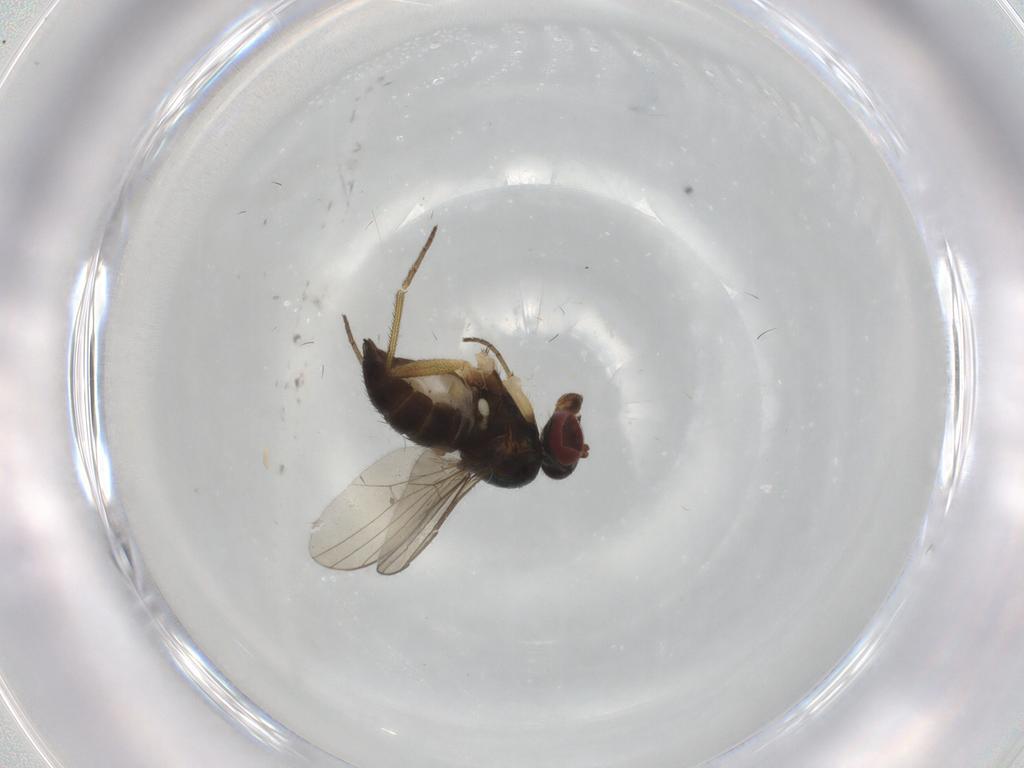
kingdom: Animalia
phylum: Arthropoda
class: Insecta
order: Diptera
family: Dolichopodidae
